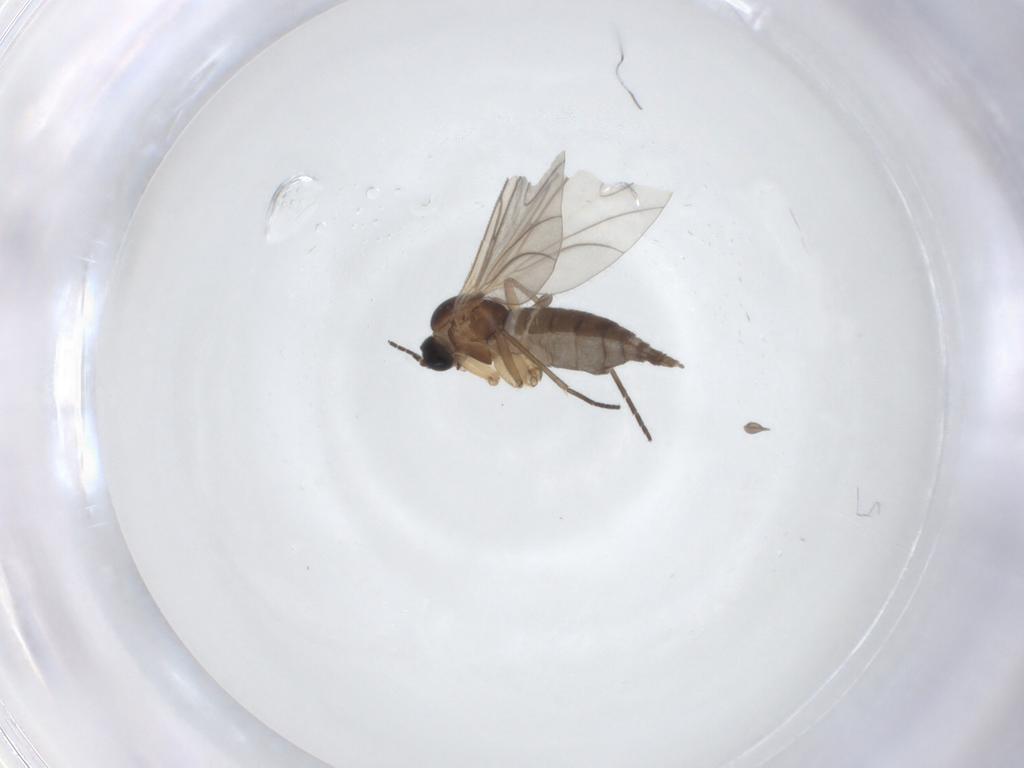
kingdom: Animalia
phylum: Arthropoda
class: Insecta
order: Diptera
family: Sciaridae
